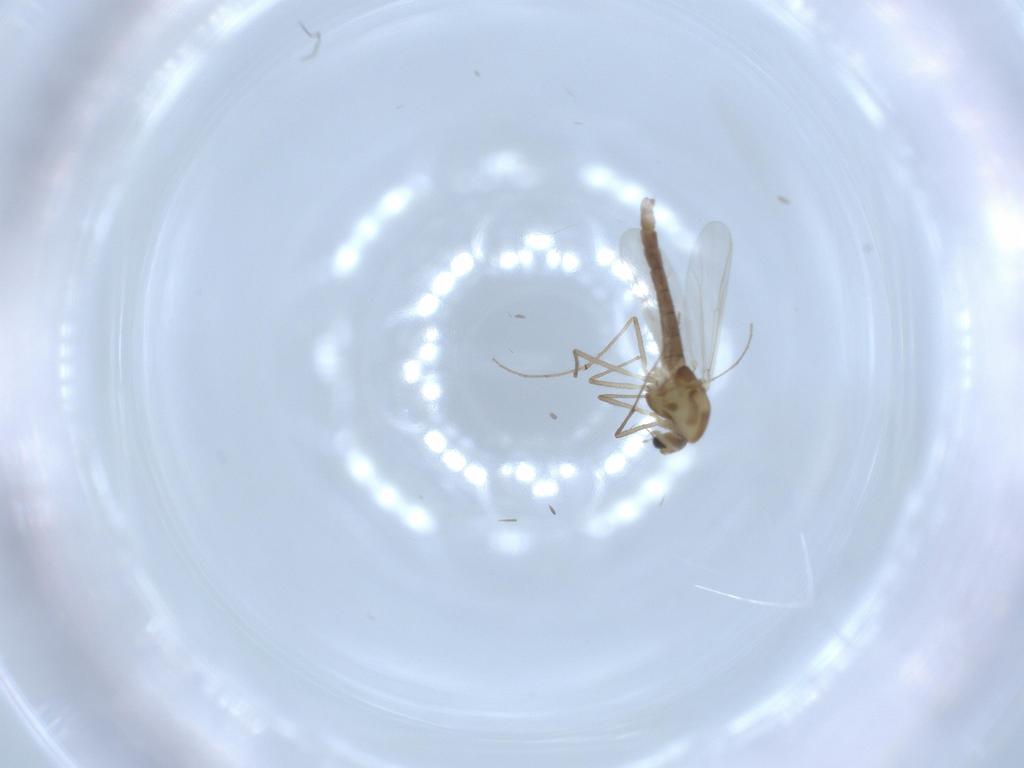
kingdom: Animalia
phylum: Arthropoda
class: Insecta
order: Diptera
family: Chironomidae
